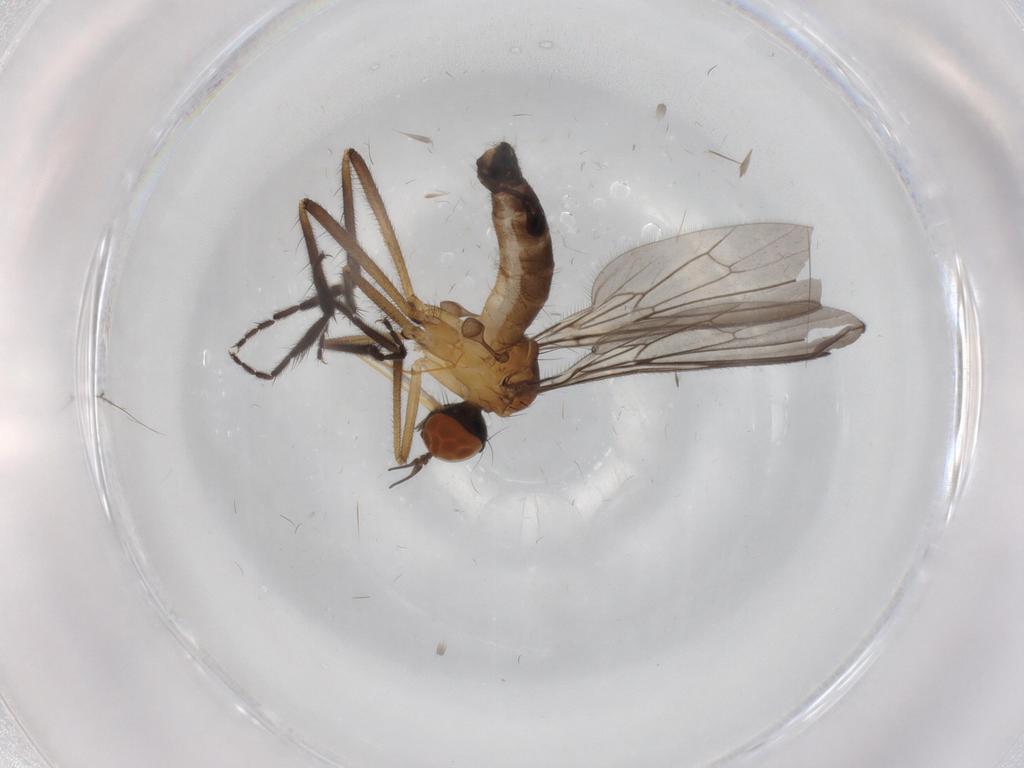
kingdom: Animalia
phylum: Arthropoda
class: Insecta
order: Diptera
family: Empididae
